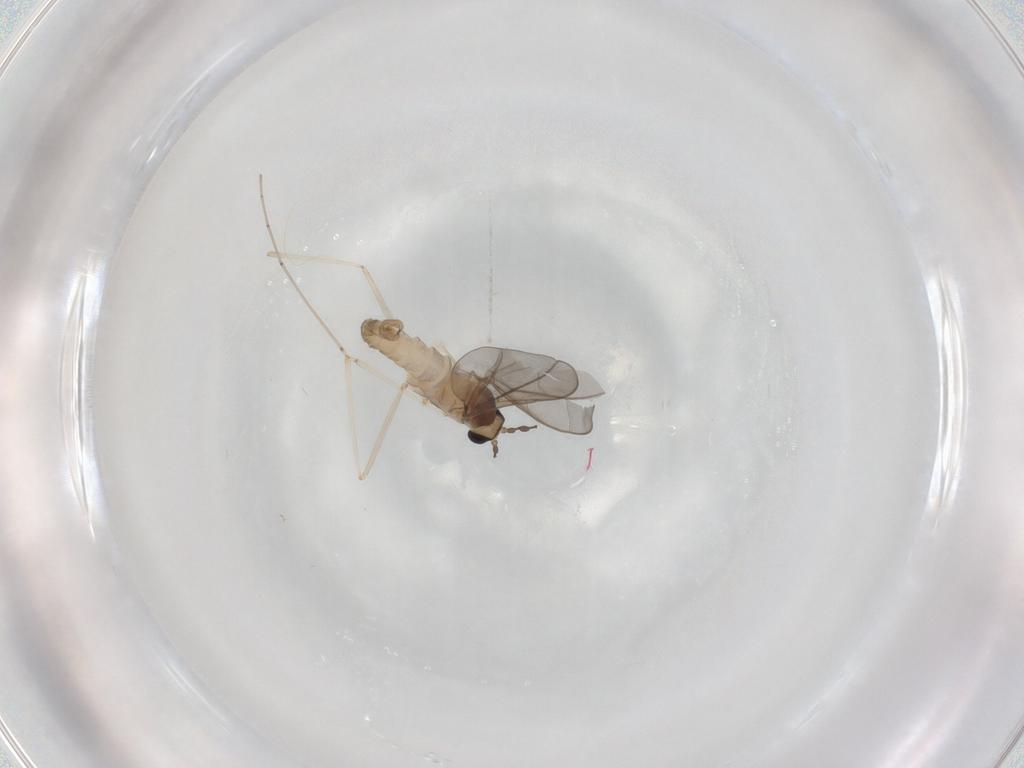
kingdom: Animalia
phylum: Arthropoda
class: Insecta
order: Diptera
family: Cecidomyiidae
